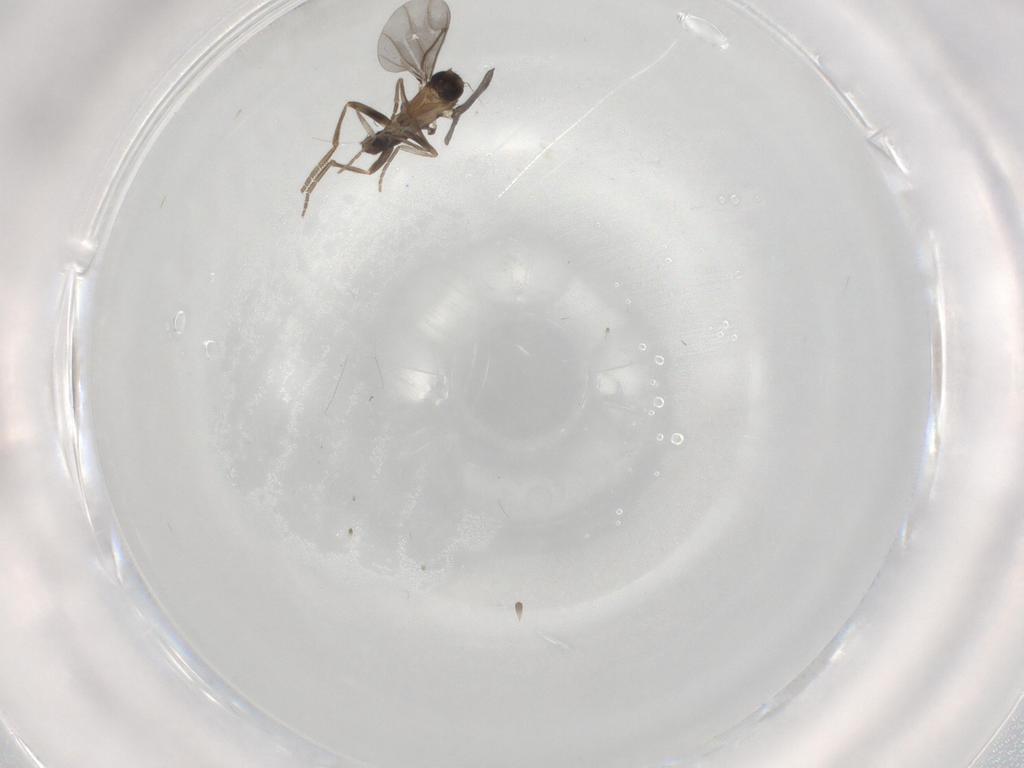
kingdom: Animalia
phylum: Arthropoda
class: Insecta
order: Diptera
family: Phoridae
